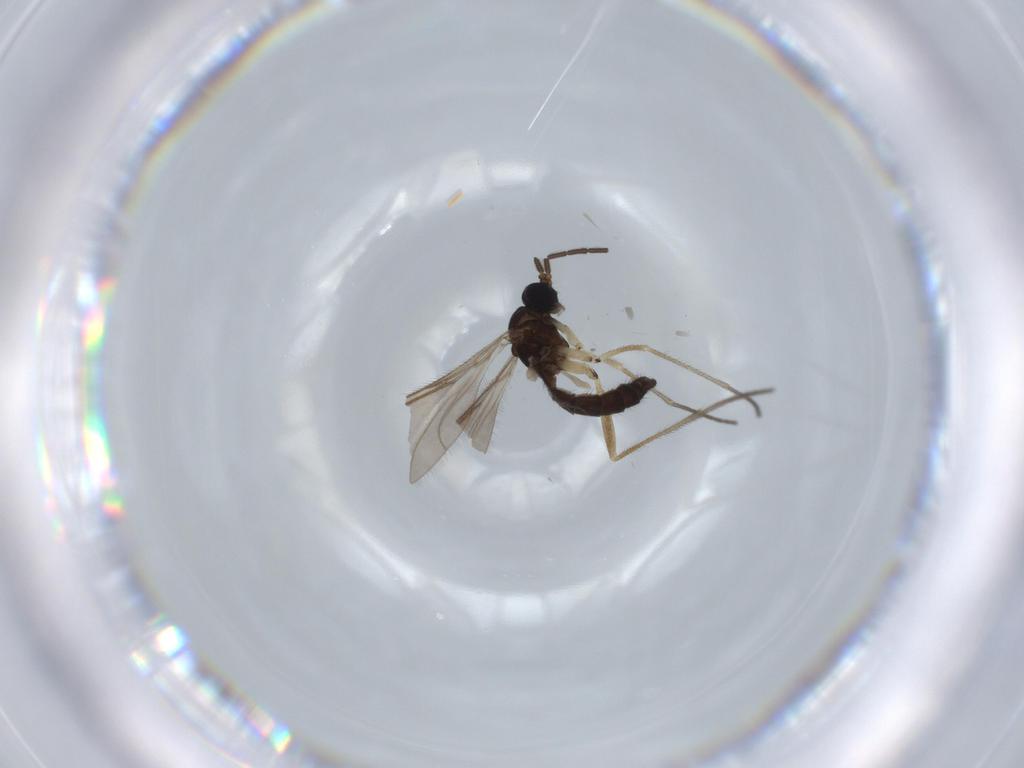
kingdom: Animalia
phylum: Arthropoda
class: Insecta
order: Diptera
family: Sciaridae
